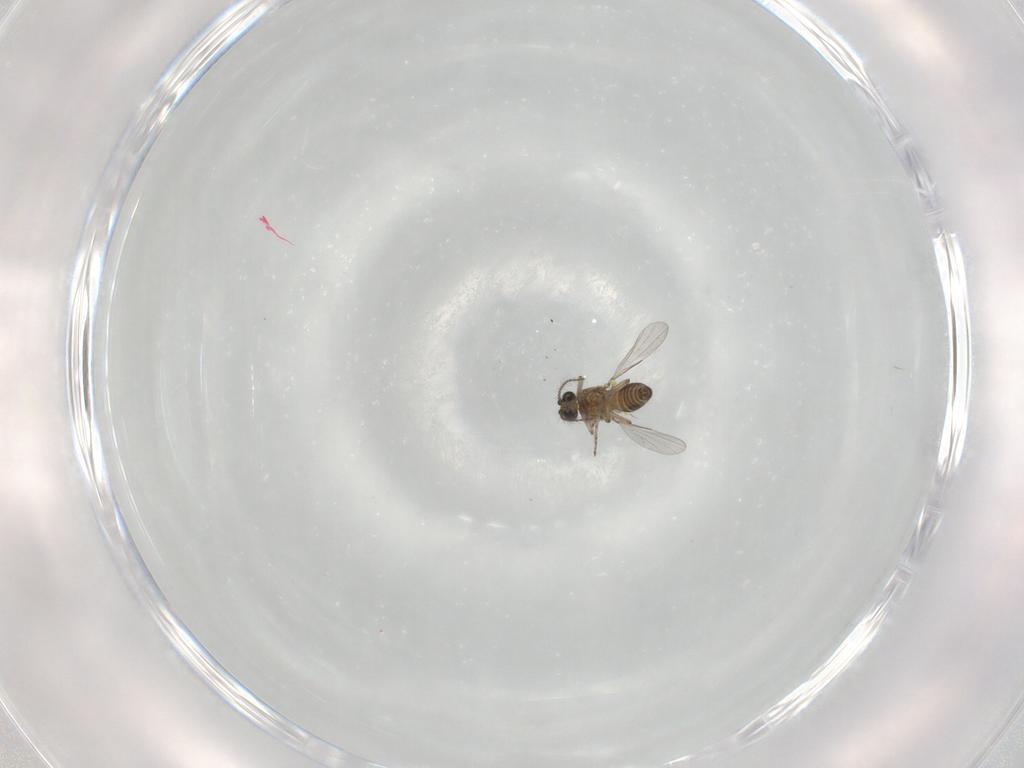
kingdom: Animalia
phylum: Arthropoda
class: Insecta
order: Diptera
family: Ceratopogonidae
